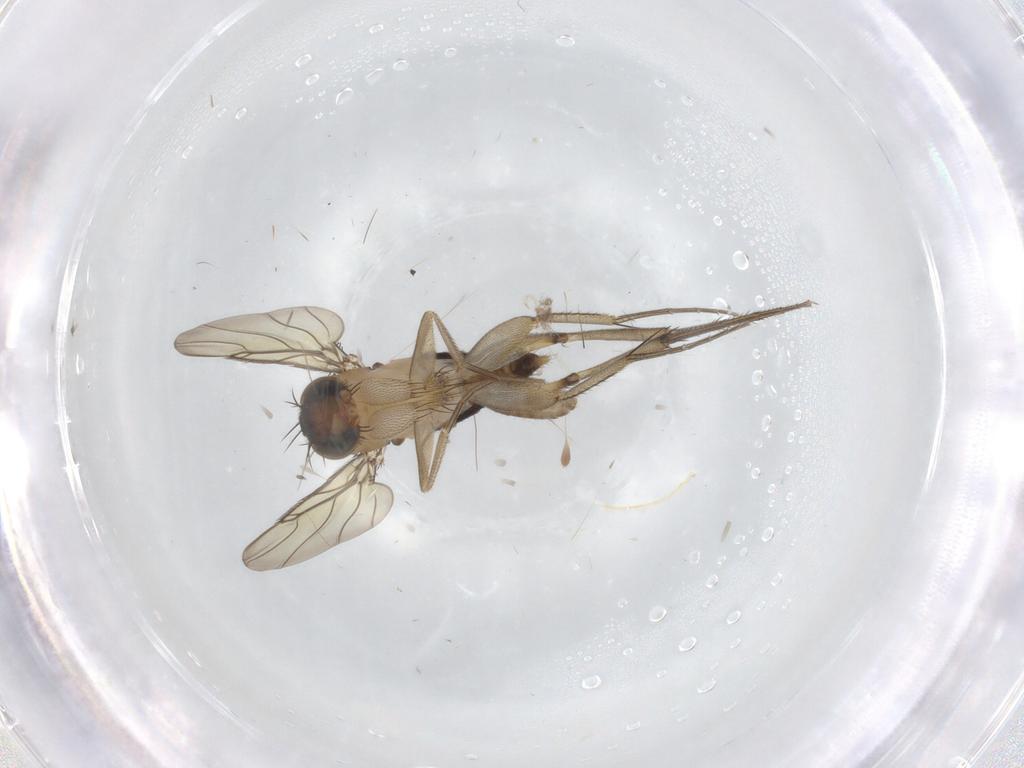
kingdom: Animalia
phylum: Arthropoda
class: Insecta
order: Diptera
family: Phoridae
